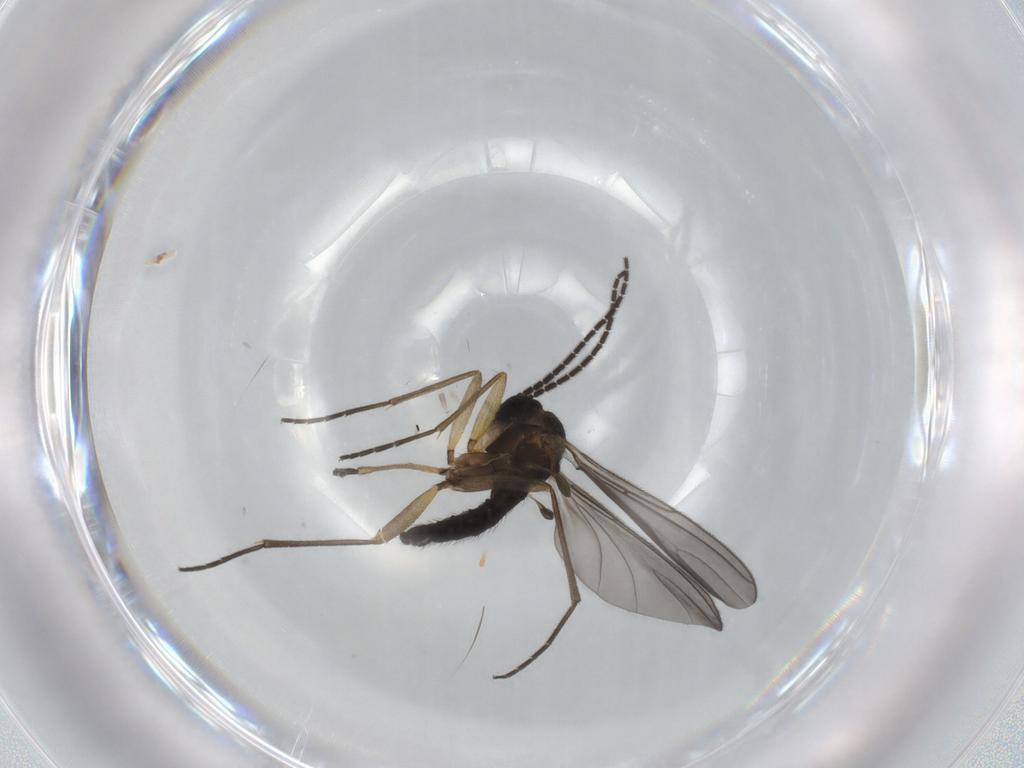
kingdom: Animalia
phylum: Arthropoda
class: Insecta
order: Diptera
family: Sciaridae
